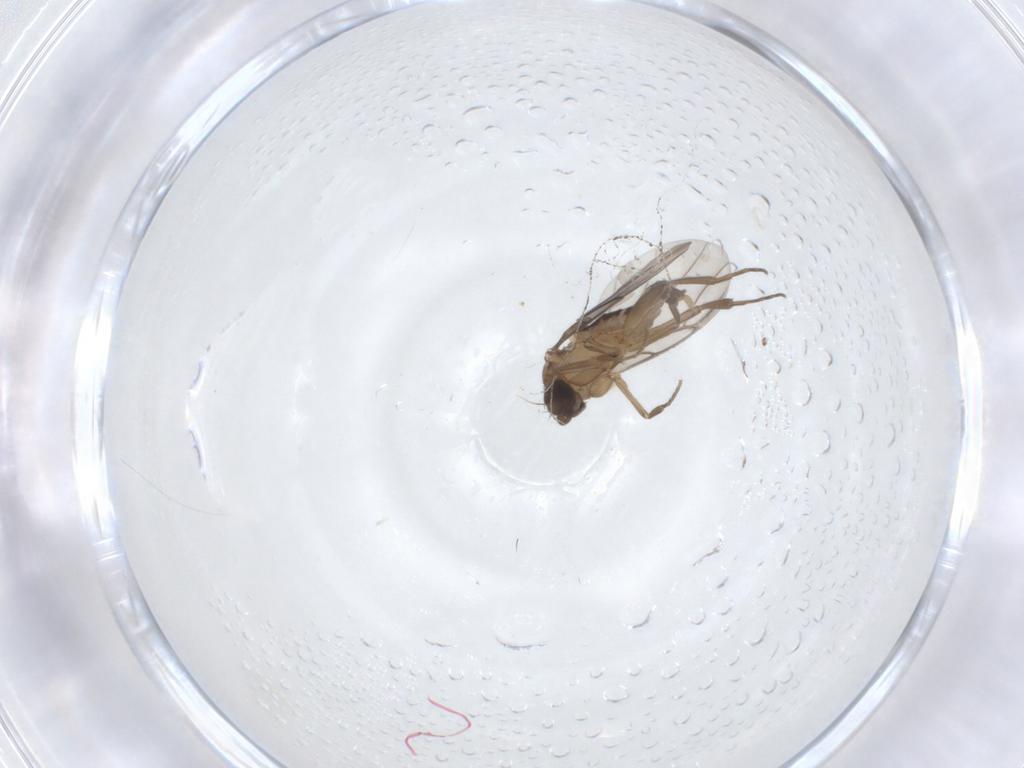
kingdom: Animalia
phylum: Arthropoda
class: Insecta
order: Diptera
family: Phoridae
